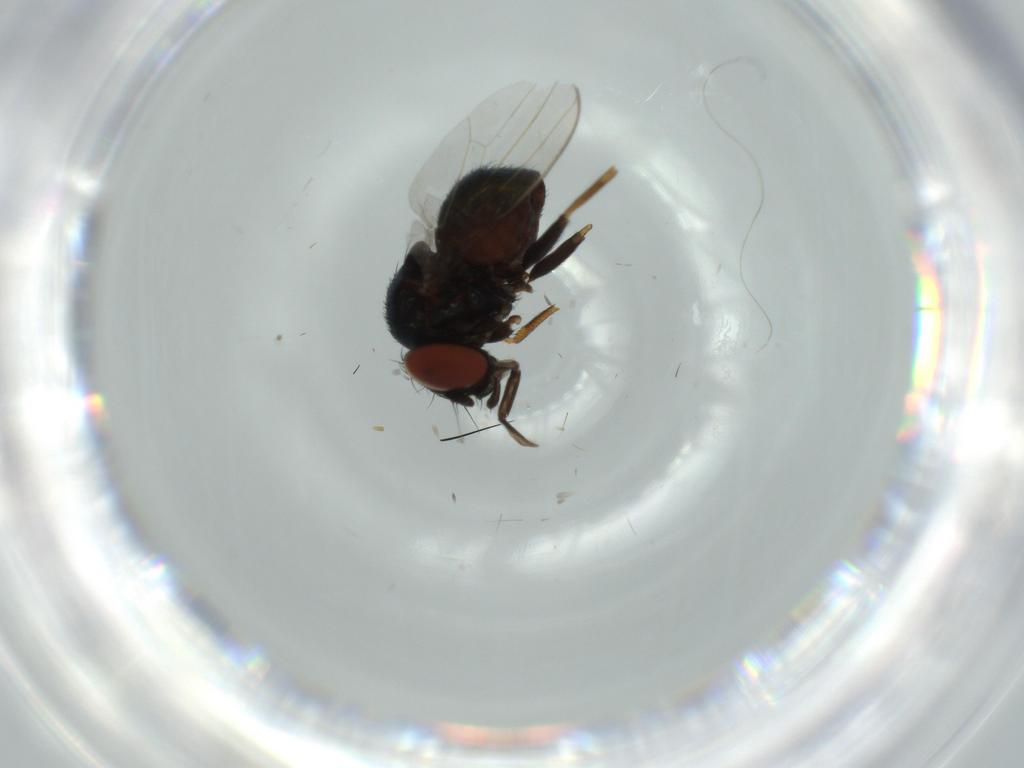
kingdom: Animalia
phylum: Arthropoda
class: Insecta
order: Diptera
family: Milichiidae
